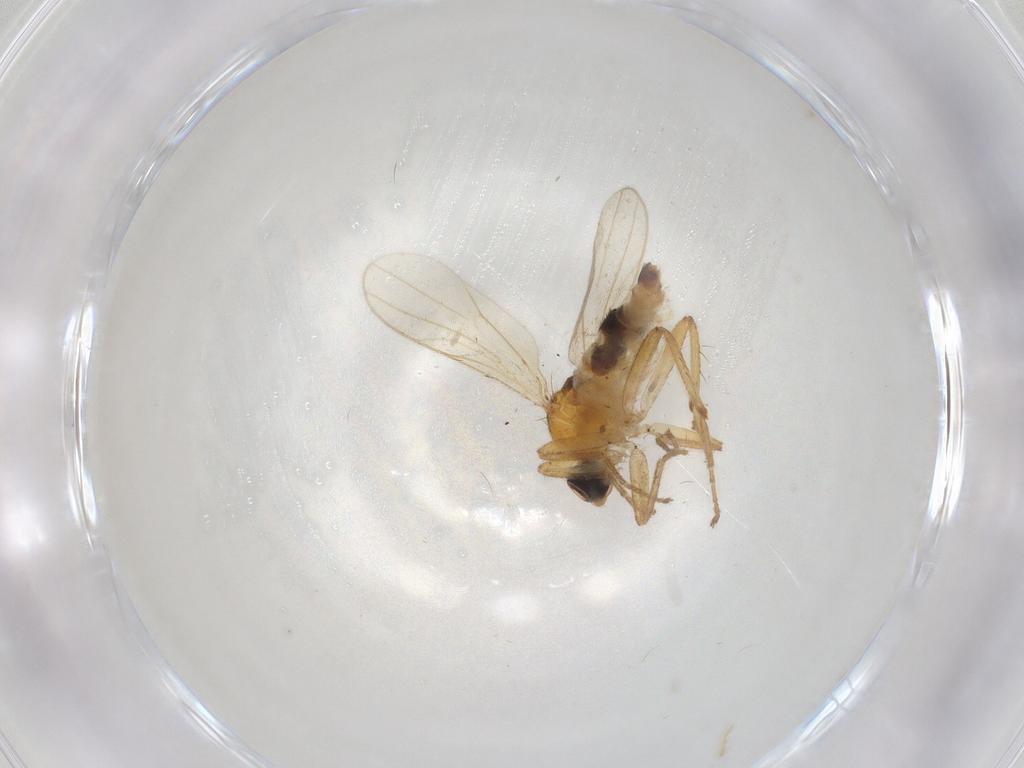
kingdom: Animalia
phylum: Arthropoda
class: Insecta
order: Diptera
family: Hybotidae
